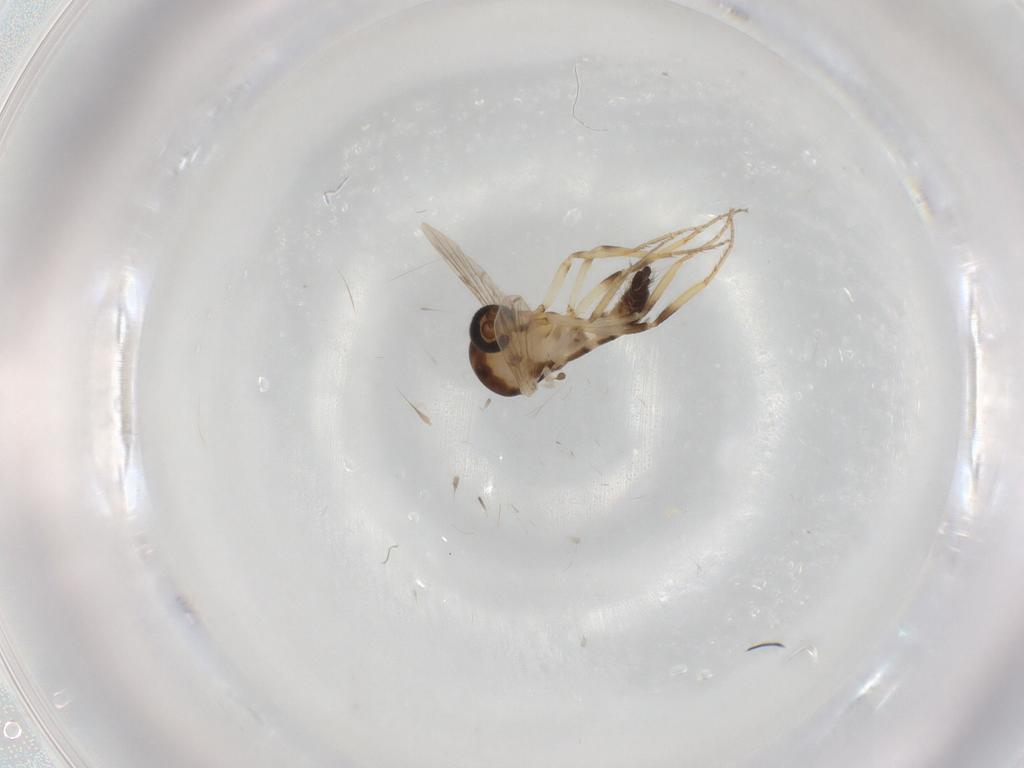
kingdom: Animalia
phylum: Arthropoda
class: Insecta
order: Diptera
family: Ceratopogonidae
